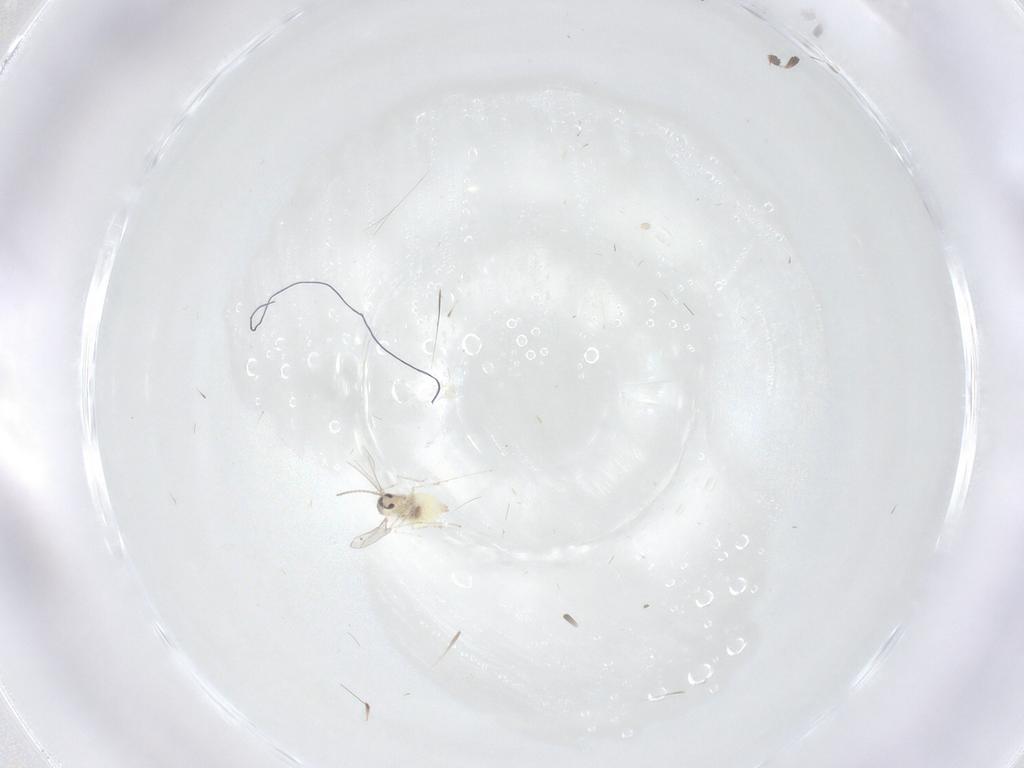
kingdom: Animalia
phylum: Arthropoda
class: Insecta
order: Diptera
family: Cecidomyiidae
